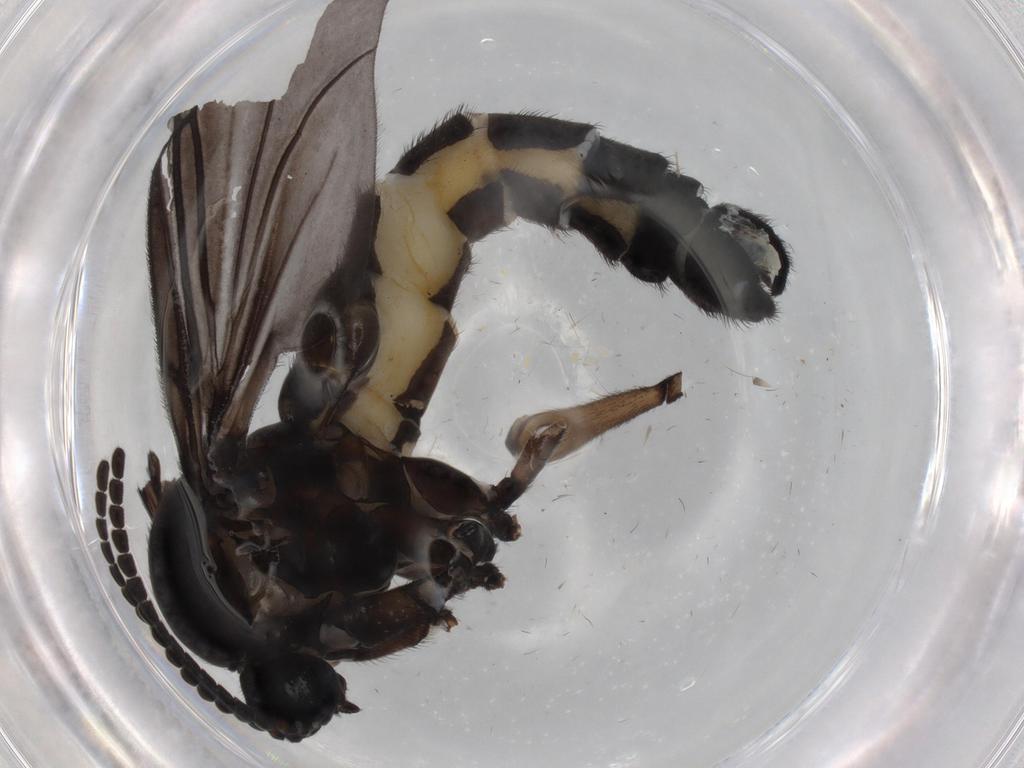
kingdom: Animalia
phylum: Arthropoda
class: Insecta
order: Diptera
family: Sciaridae
